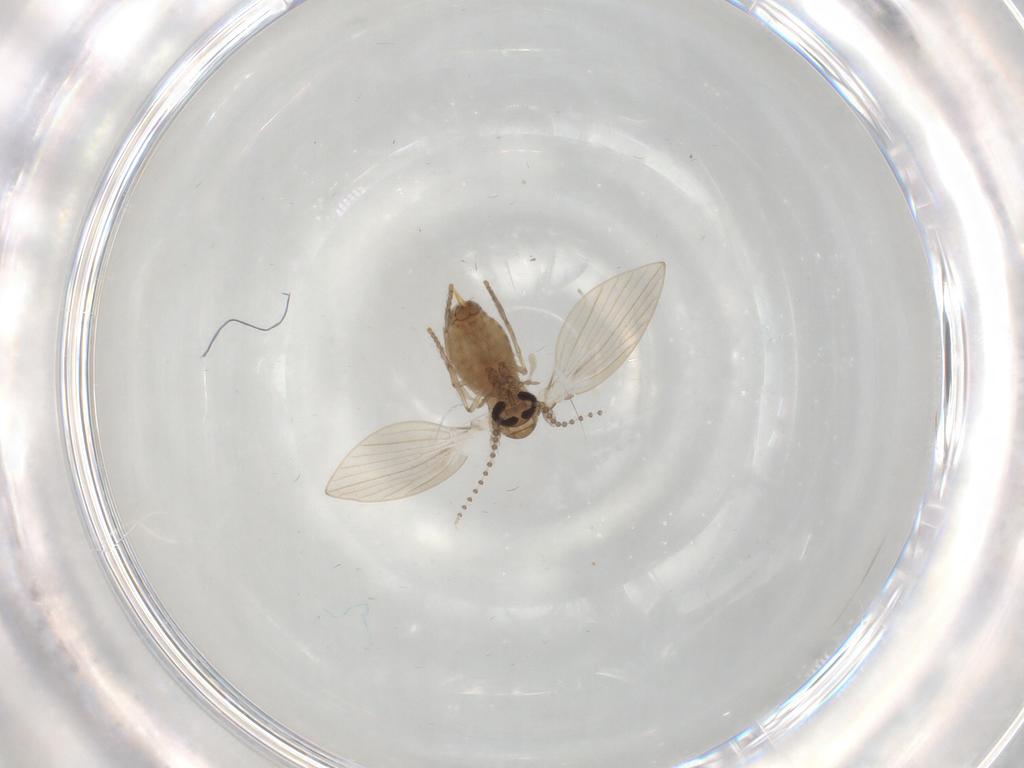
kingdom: Animalia
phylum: Arthropoda
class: Insecta
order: Diptera
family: Psychodidae
